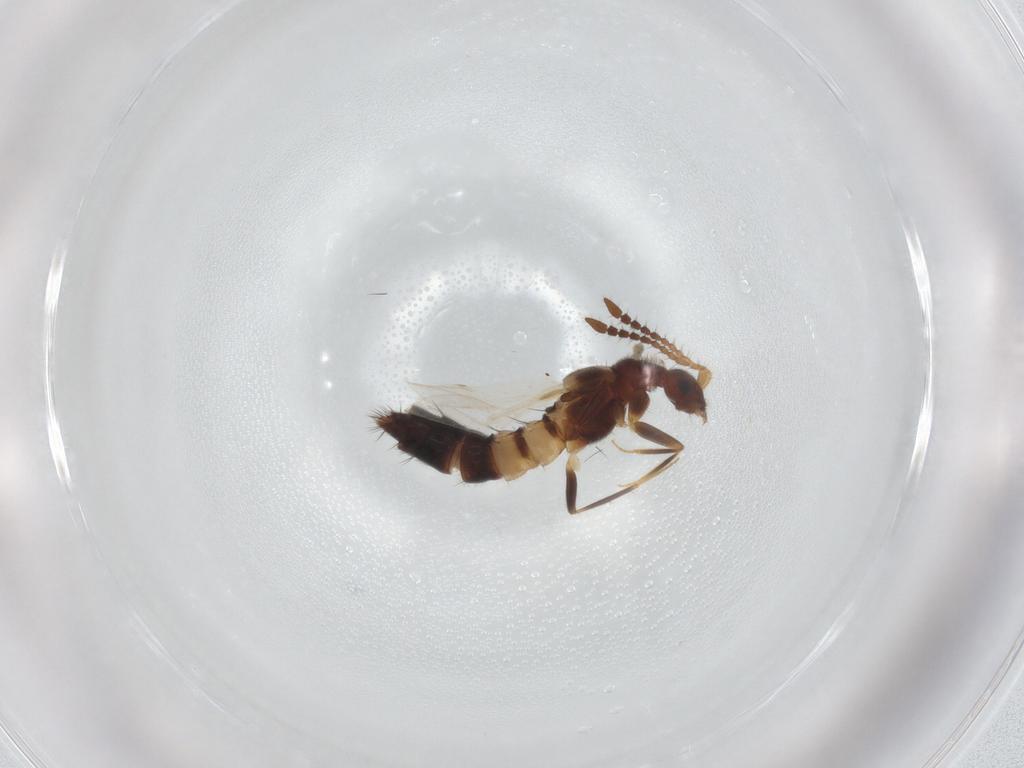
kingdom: Animalia
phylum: Arthropoda
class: Insecta
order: Coleoptera
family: Staphylinidae
